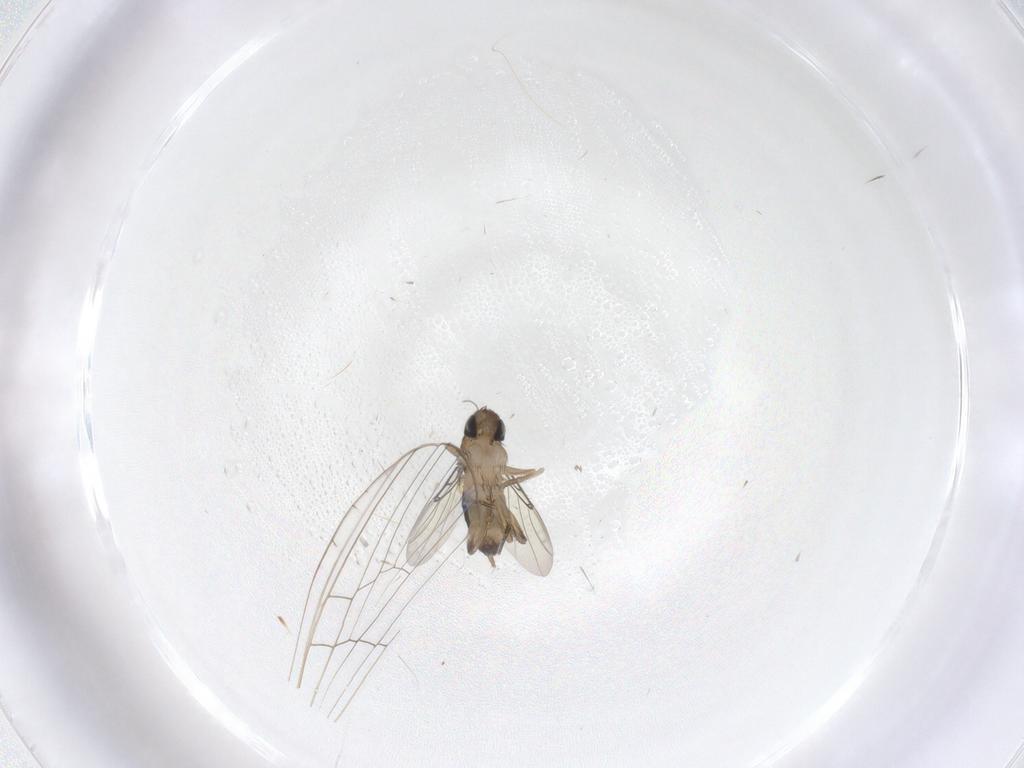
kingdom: Animalia
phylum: Arthropoda
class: Insecta
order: Diptera
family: Phoridae
